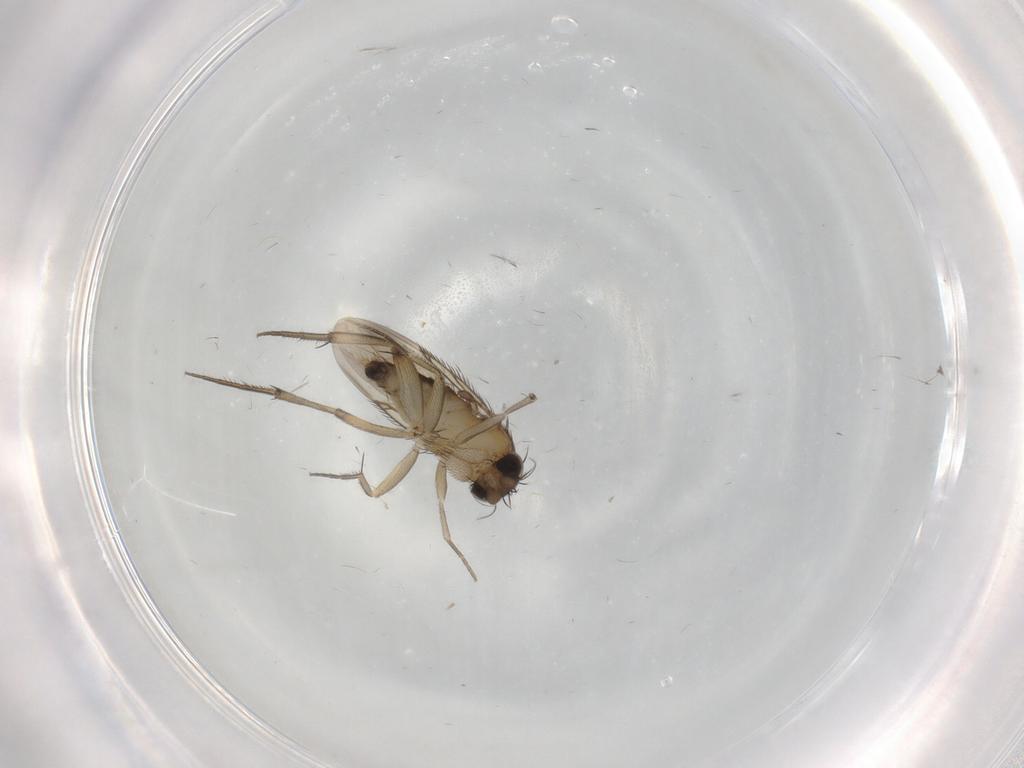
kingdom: Animalia
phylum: Arthropoda
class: Insecta
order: Diptera
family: Phoridae
